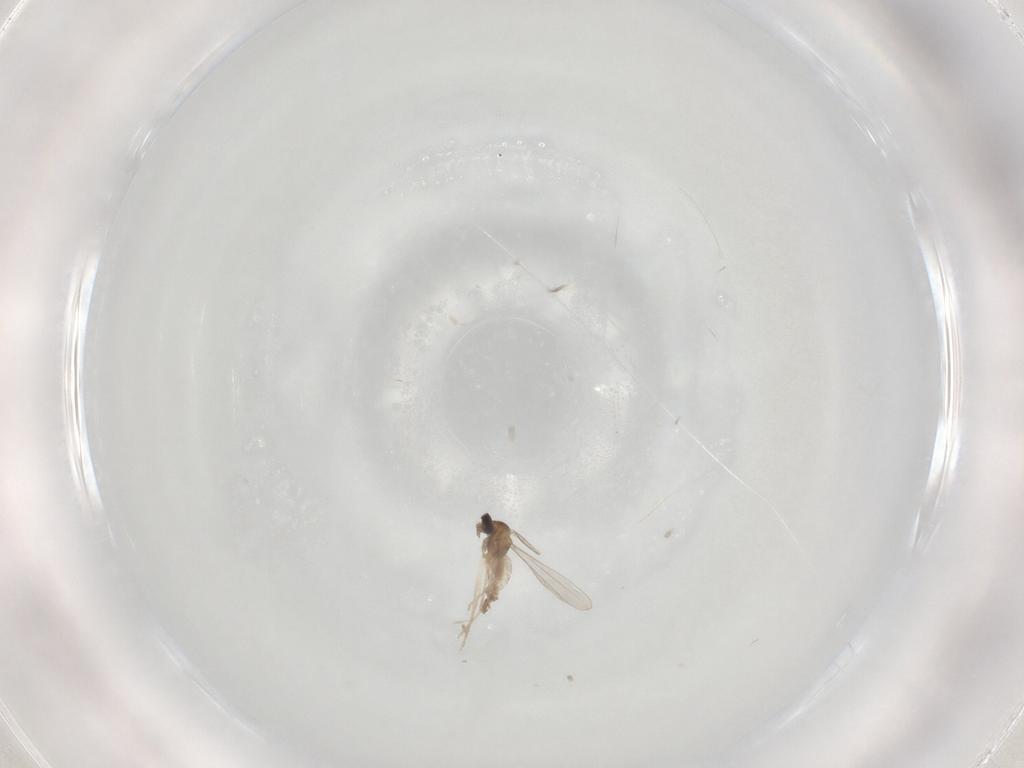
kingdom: Animalia
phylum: Arthropoda
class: Insecta
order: Diptera
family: Cecidomyiidae
